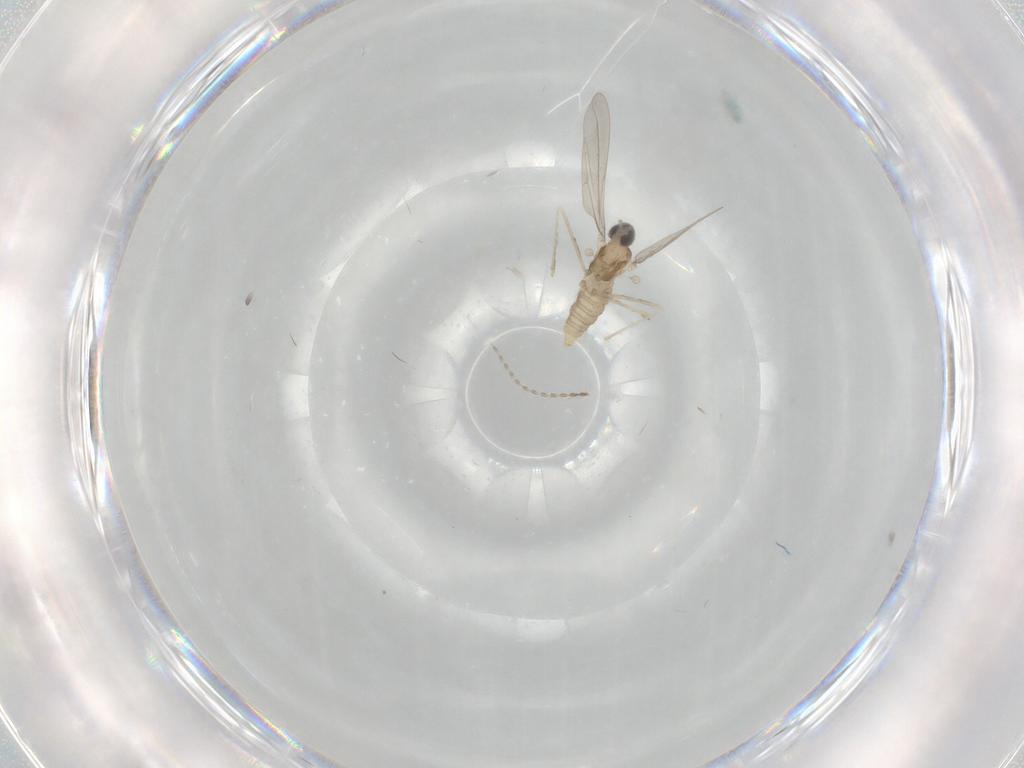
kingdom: Animalia
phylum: Arthropoda
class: Insecta
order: Diptera
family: Cecidomyiidae
